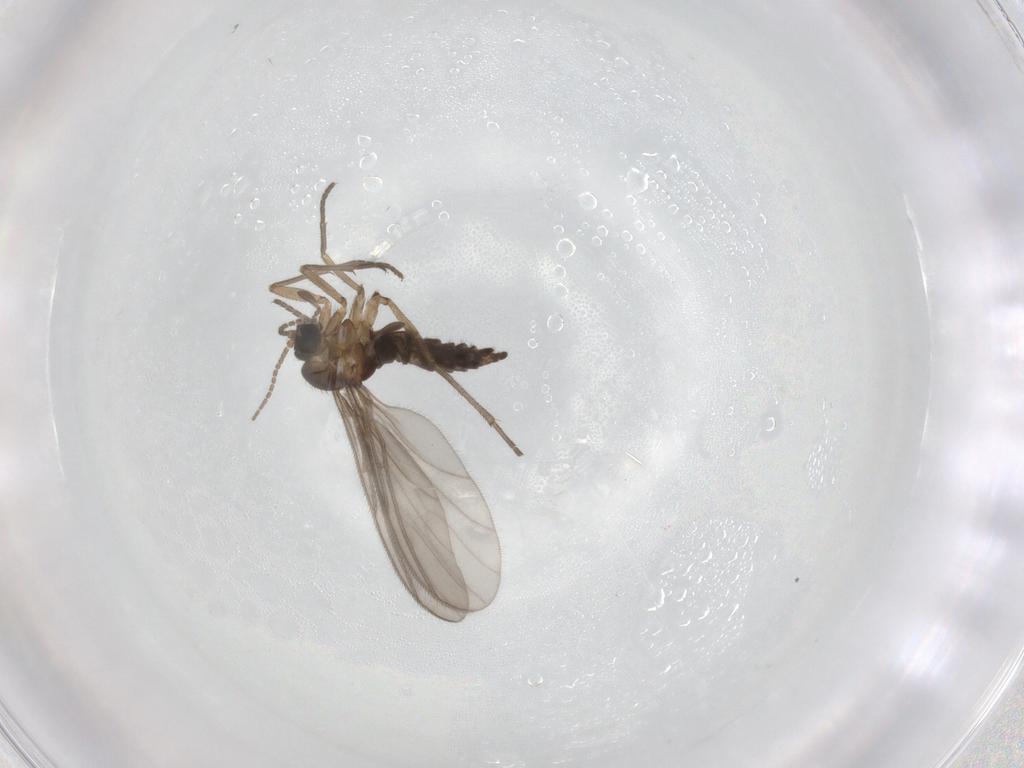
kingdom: Animalia
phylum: Arthropoda
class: Insecta
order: Diptera
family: Sciaridae
